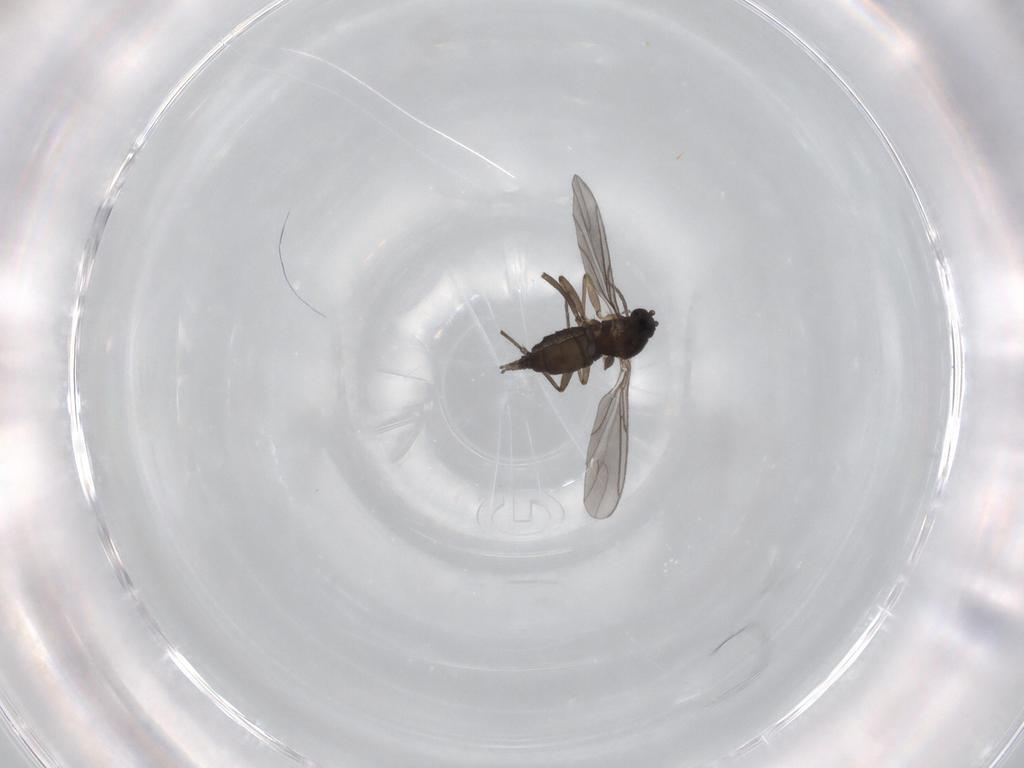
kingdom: Animalia
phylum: Arthropoda
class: Insecta
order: Diptera
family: Sciaridae
